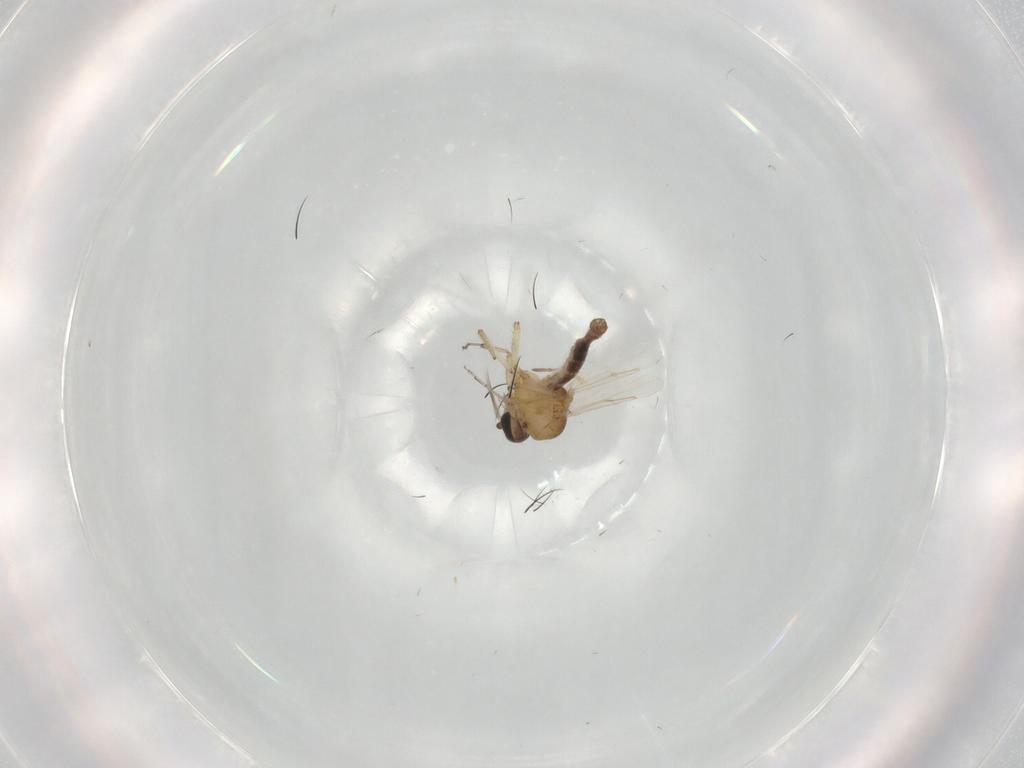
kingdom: Animalia
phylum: Arthropoda
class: Insecta
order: Diptera
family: Ceratopogonidae
